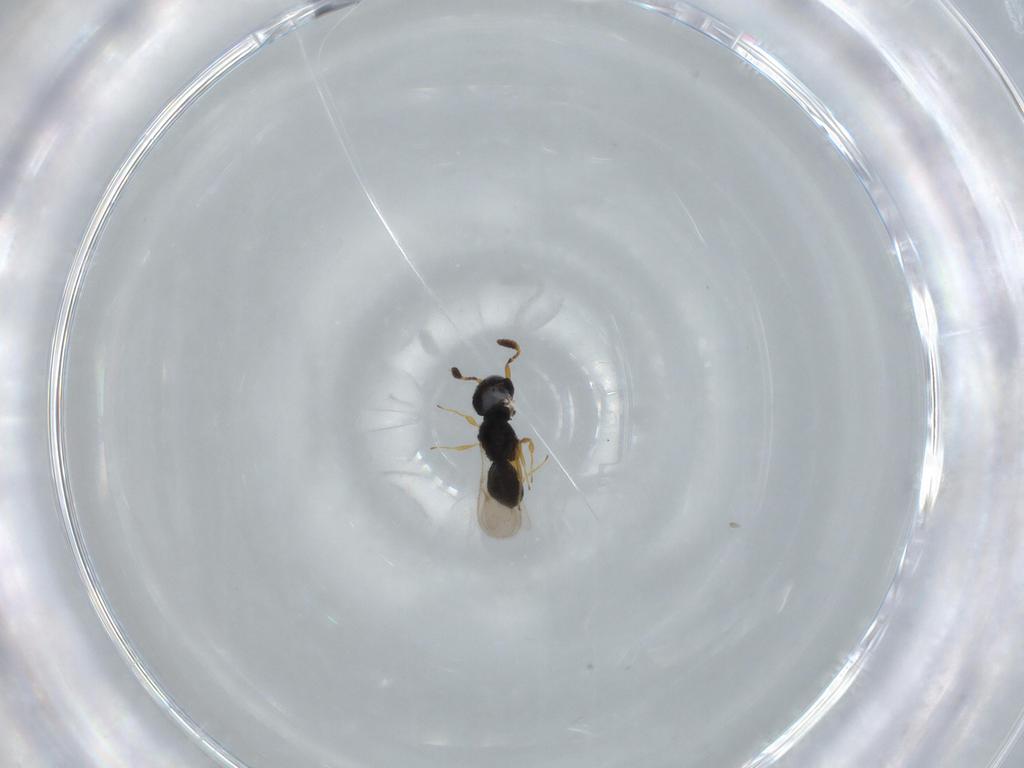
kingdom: Animalia
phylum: Arthropoda
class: Insecta
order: Hymenoptera
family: Scelionidae
